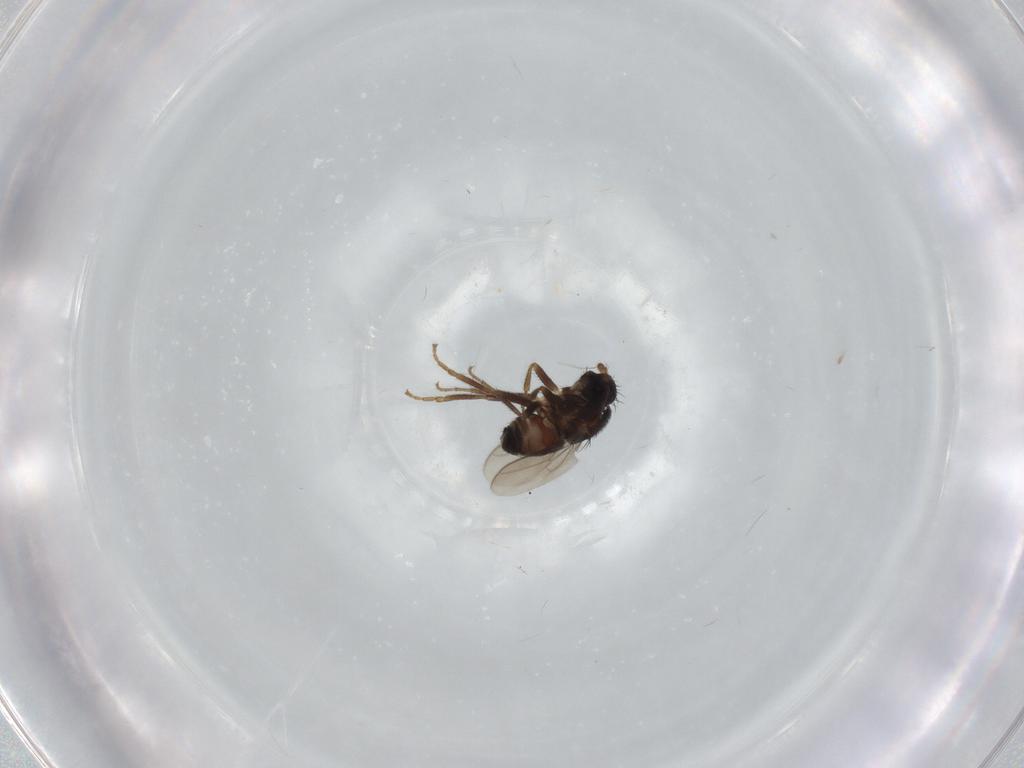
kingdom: Animalia
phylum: Arthropoda
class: Insecta
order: Diptera
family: Sphaeroceridae
